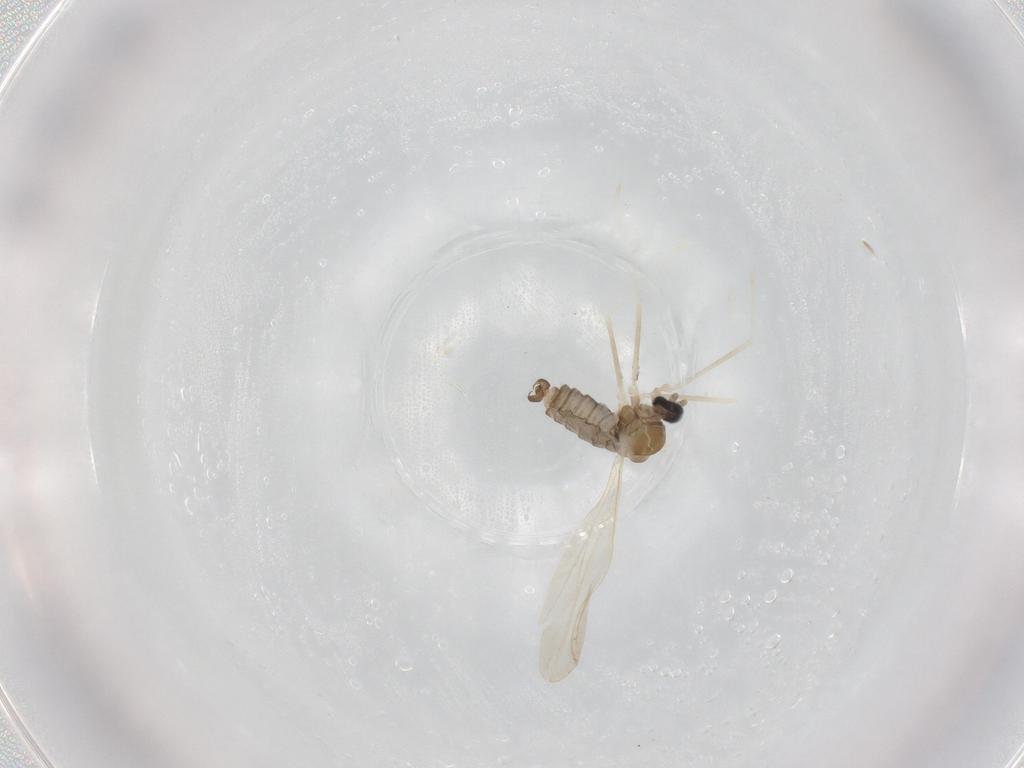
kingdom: Animalia
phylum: Arthropoda
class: Insecta
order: Diptera
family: Cecidomyiidae
